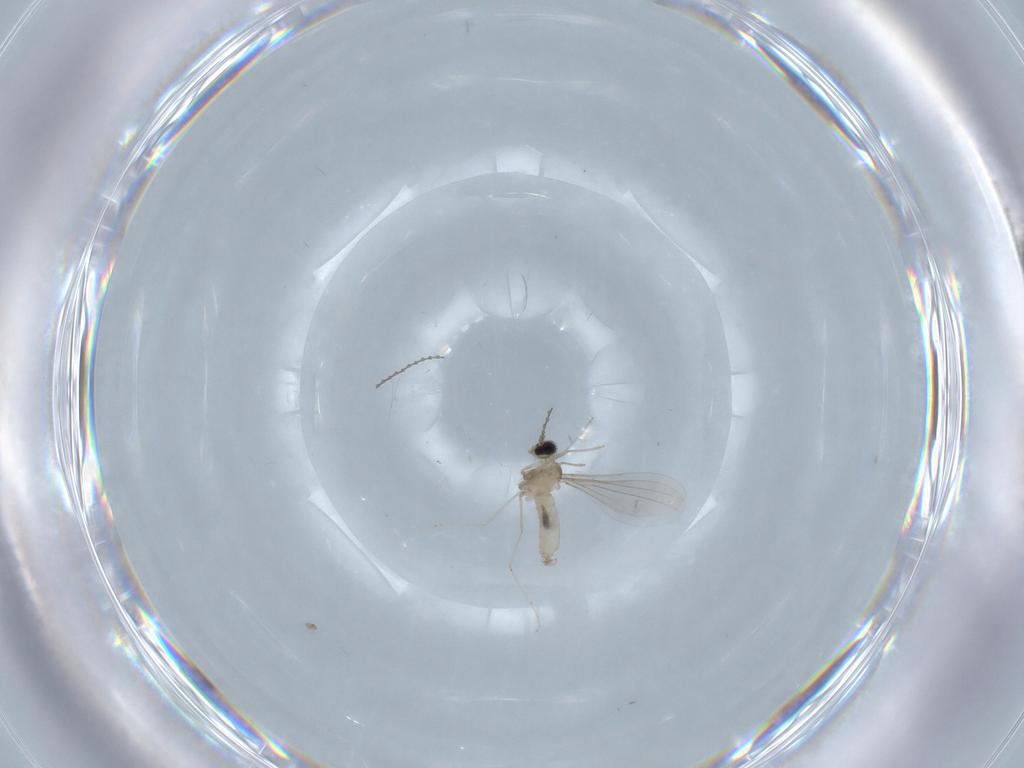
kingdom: Animalia
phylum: Arthropoda
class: Insecta
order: Diptera
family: Cecidomyiidae
